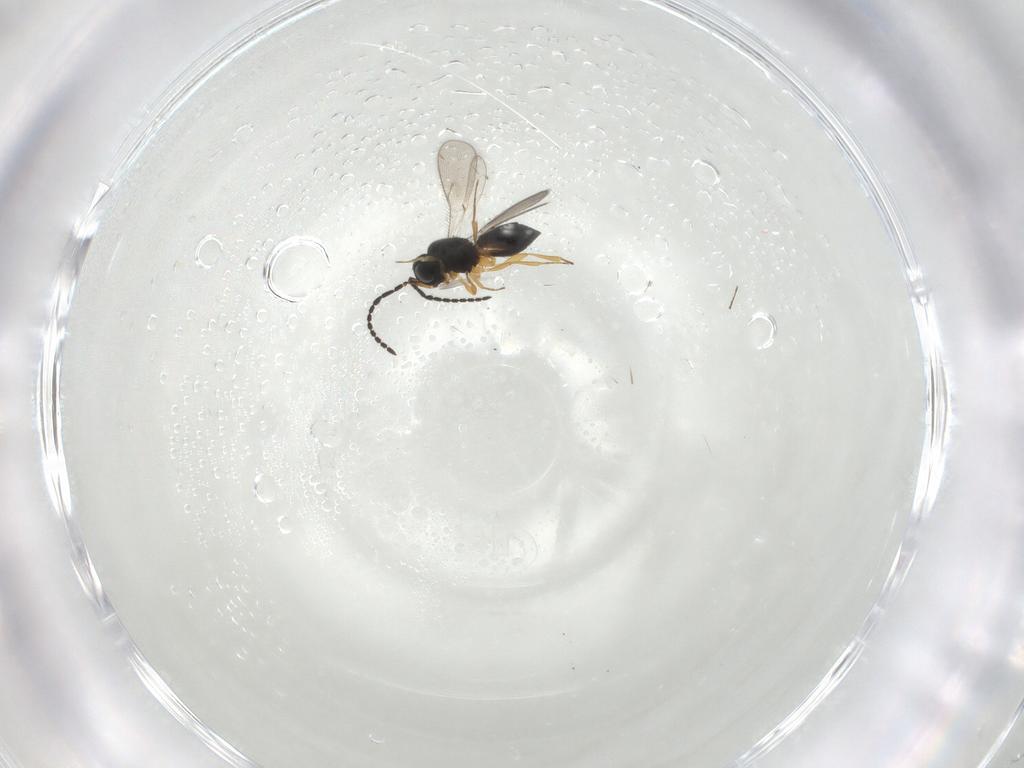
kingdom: Animalia
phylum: Arthropoda
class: Insecta
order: Hymenoptera
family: Scelionidae
